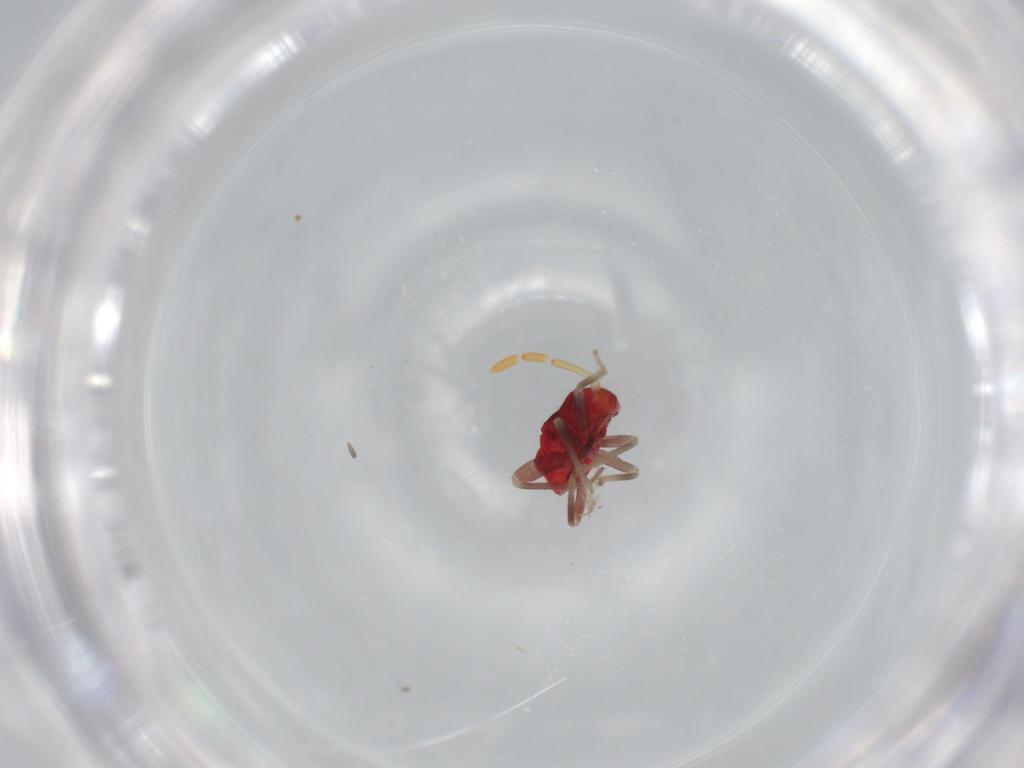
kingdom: Animalia
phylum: Arthropoda
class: Insecta
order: Hemiptera
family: Miridae
